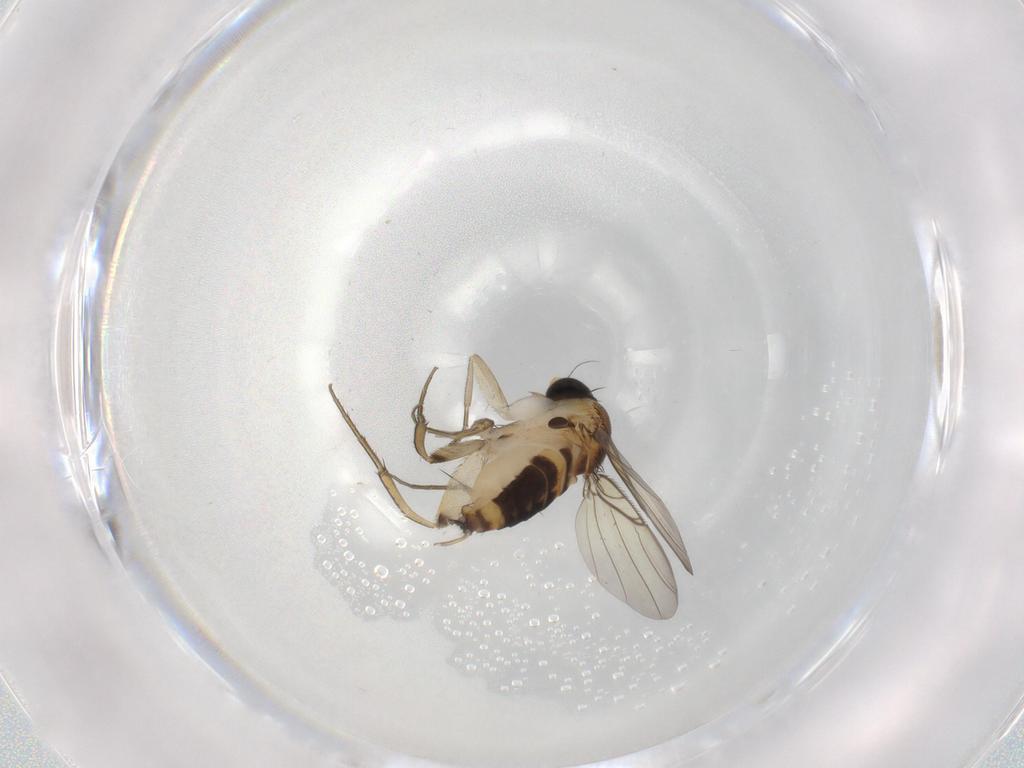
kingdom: Animalia
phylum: Arthropoda
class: Insecta
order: Diptera
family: Phoridae
